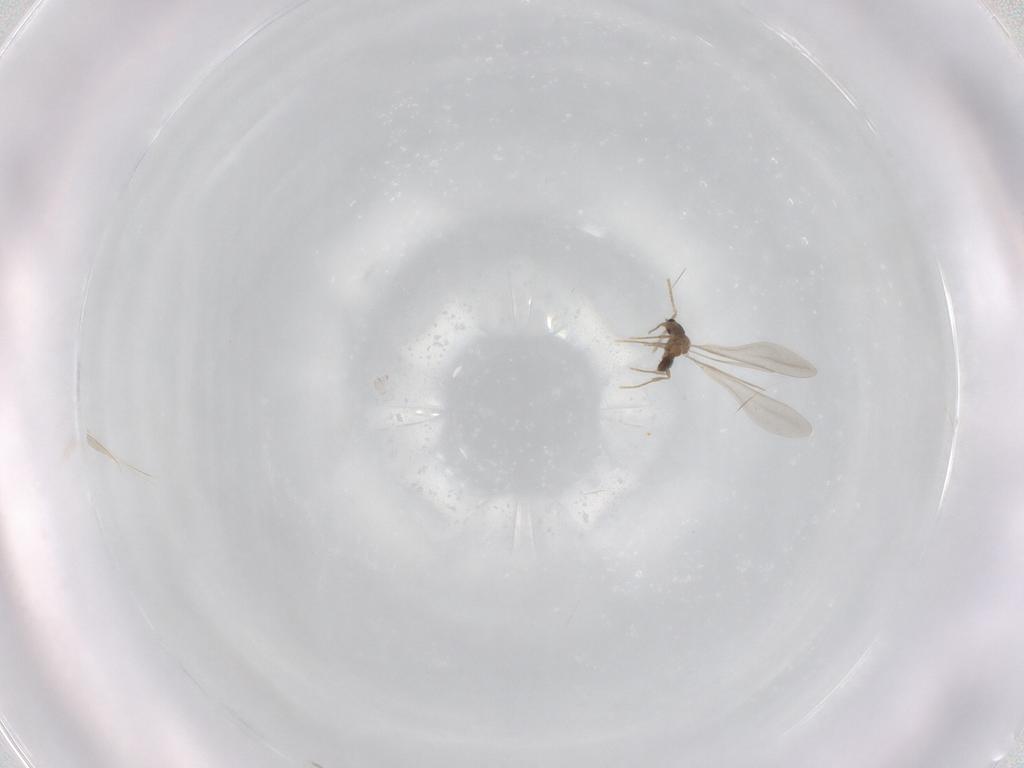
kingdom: Animalia
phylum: Arthropoda
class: Insecta
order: Hymenoptera
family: Formicidae
